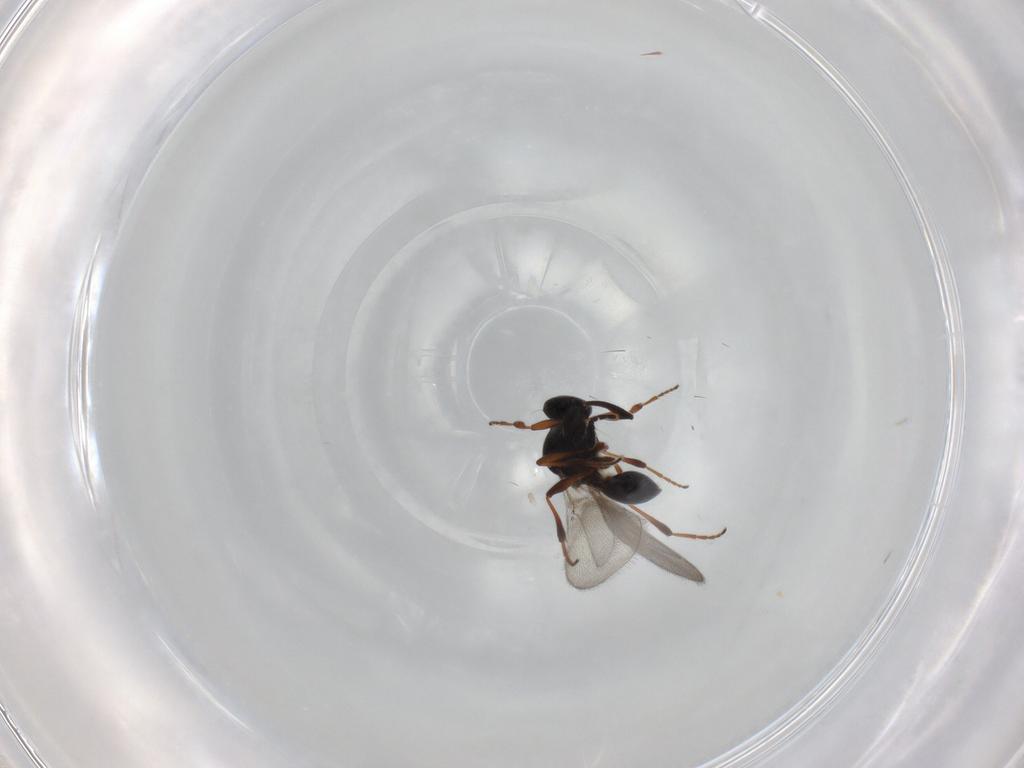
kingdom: Animalia
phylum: Arthropoda
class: Insecta
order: Hymenoptera
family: Platygastridae
